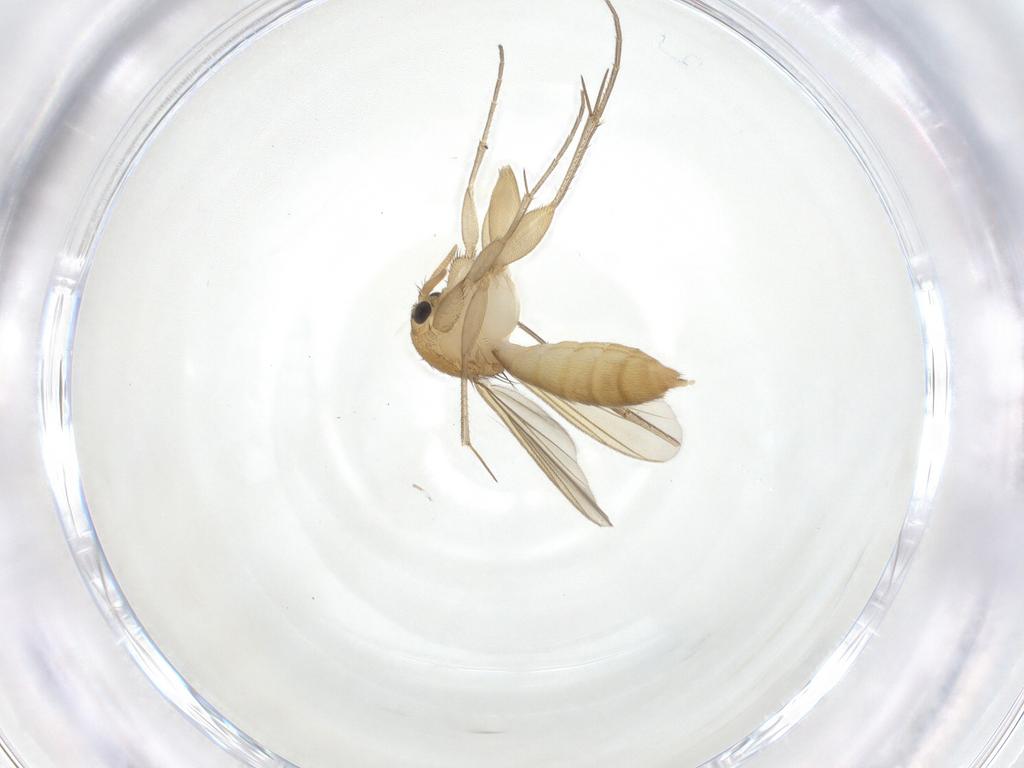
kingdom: Animalia
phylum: Arthropoda
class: Insecta
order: Diptera
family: Mycetophilidae
